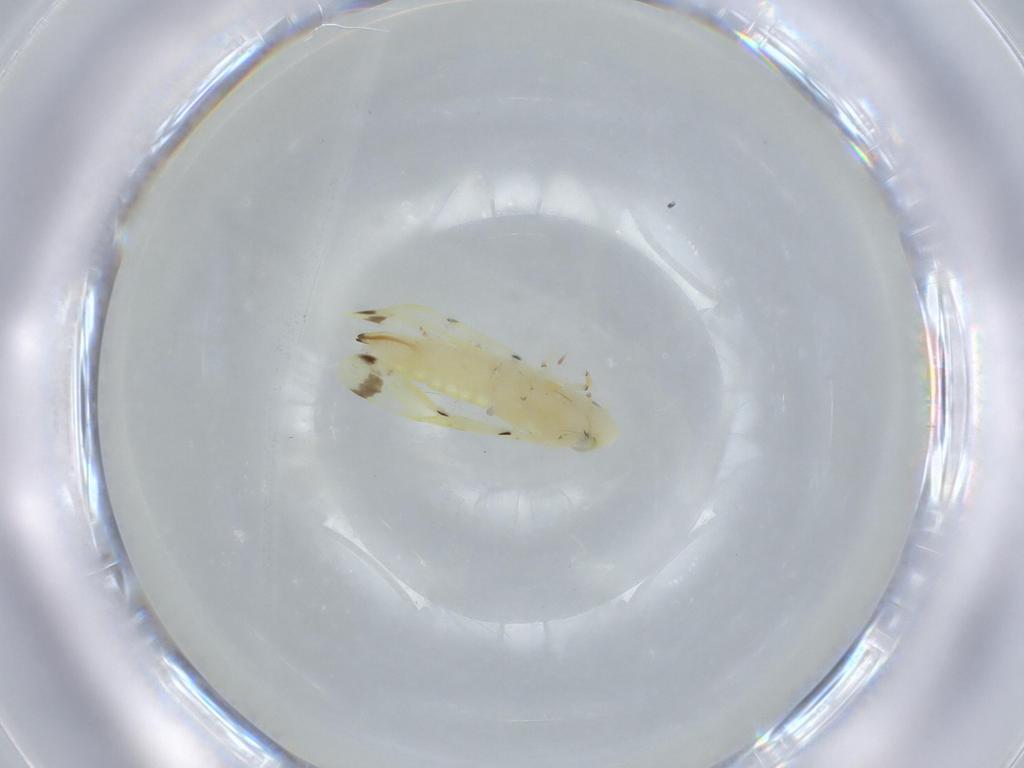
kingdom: Animalia
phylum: Arthropoda
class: Insecta
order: Hemiptera
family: Cicadellidae
